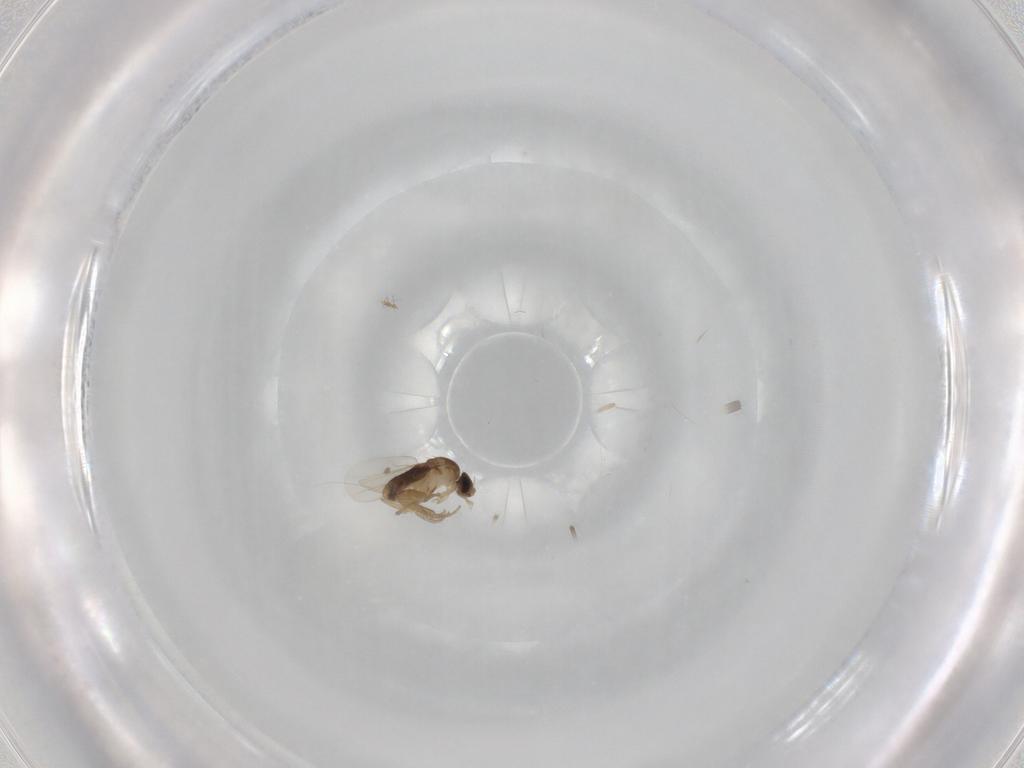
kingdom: Animalia
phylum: Arthropoda
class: Insecta
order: Diptera
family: Phoridae
